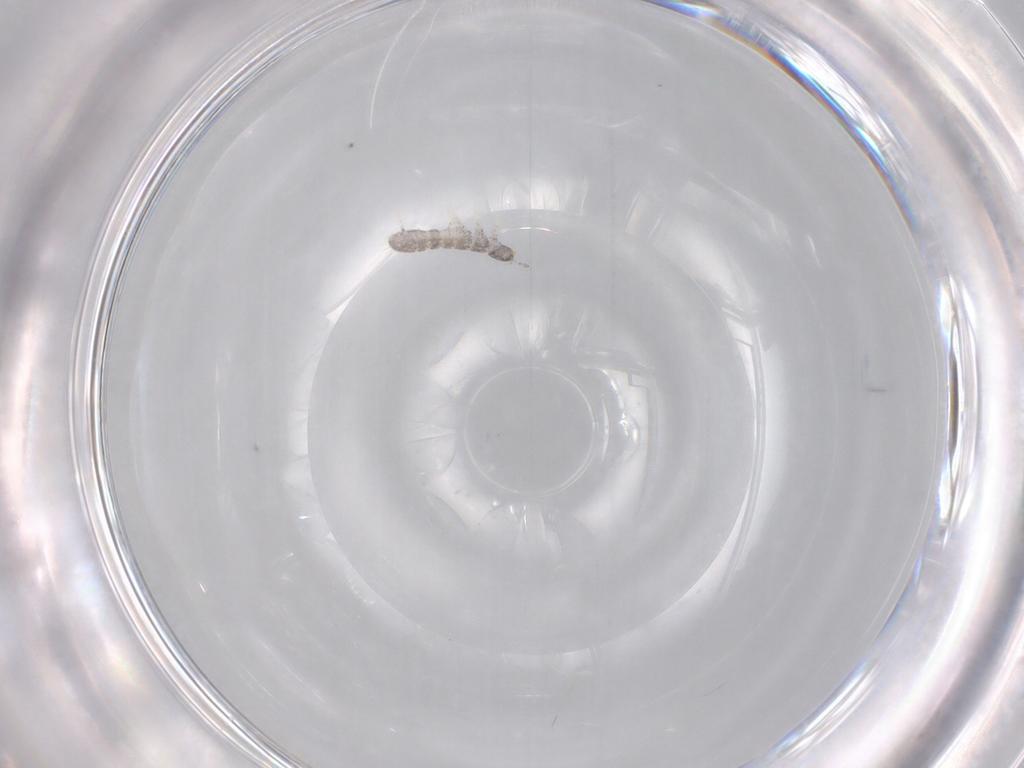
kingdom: Animalia
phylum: Arthropoda
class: Collembola
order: Entomobryomorpha
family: Isotomidae
